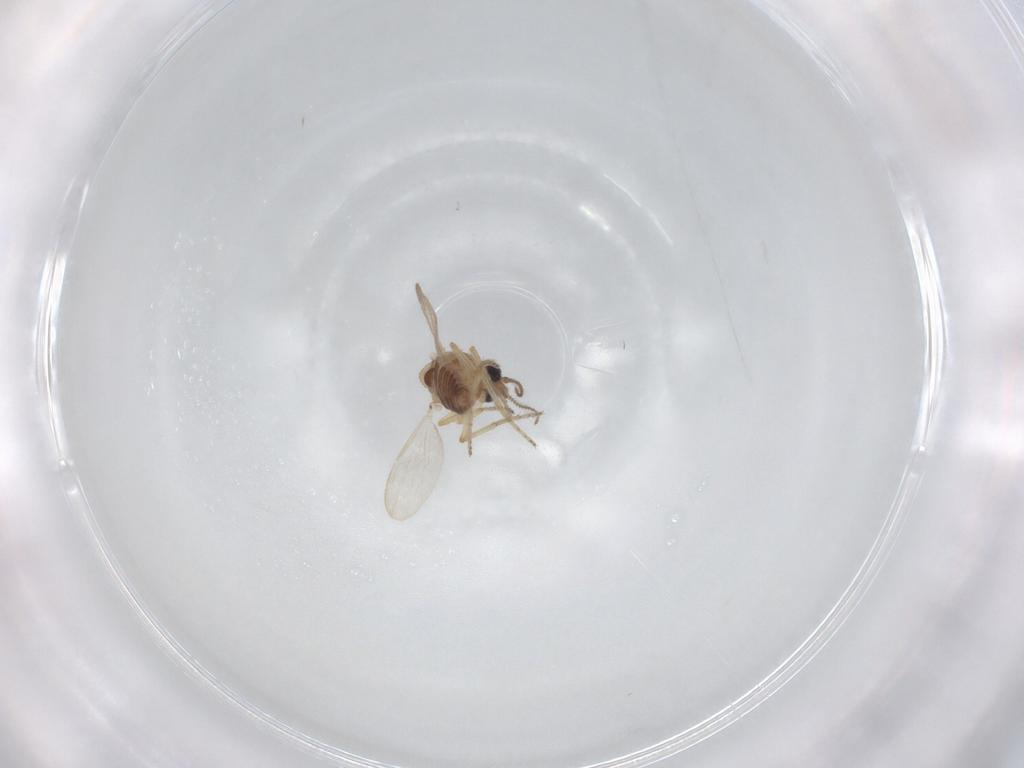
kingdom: Animalia
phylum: Arthropoda
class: Insecta
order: Diptera
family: Ceratopogonidae
